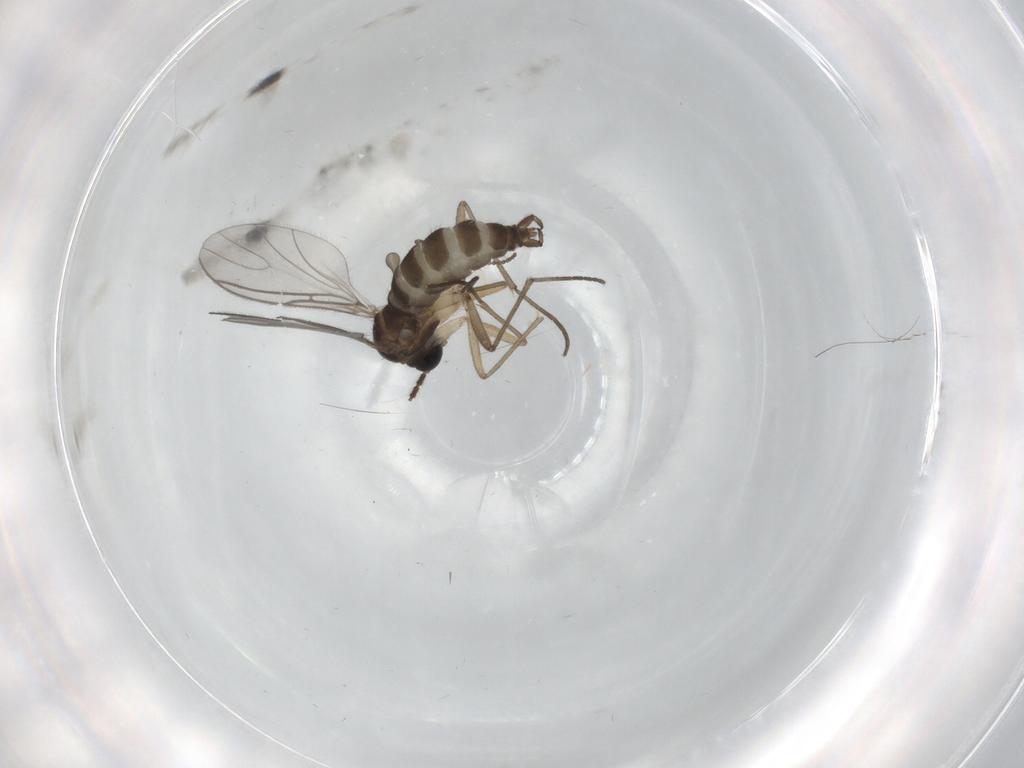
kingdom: Animalia
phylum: Arthropoda
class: Insecta
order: Diptera
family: Cecidomyiidae
